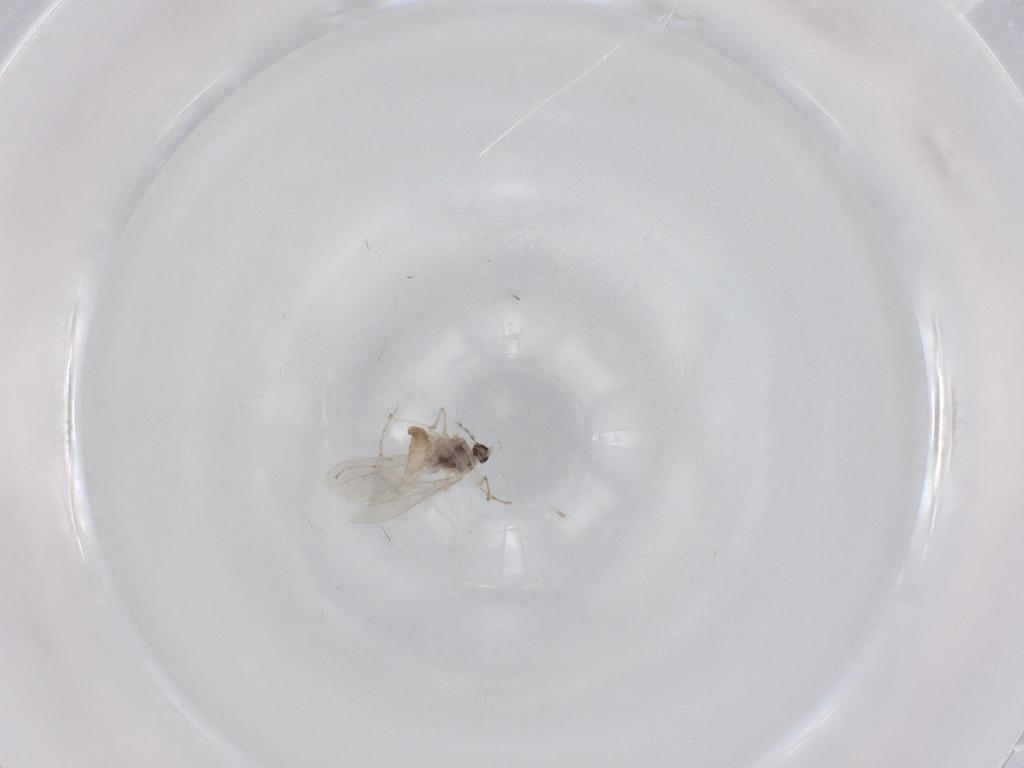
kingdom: Animalia
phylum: Arthropoda
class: Insecta
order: Diptera
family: Cecidomyiidae
